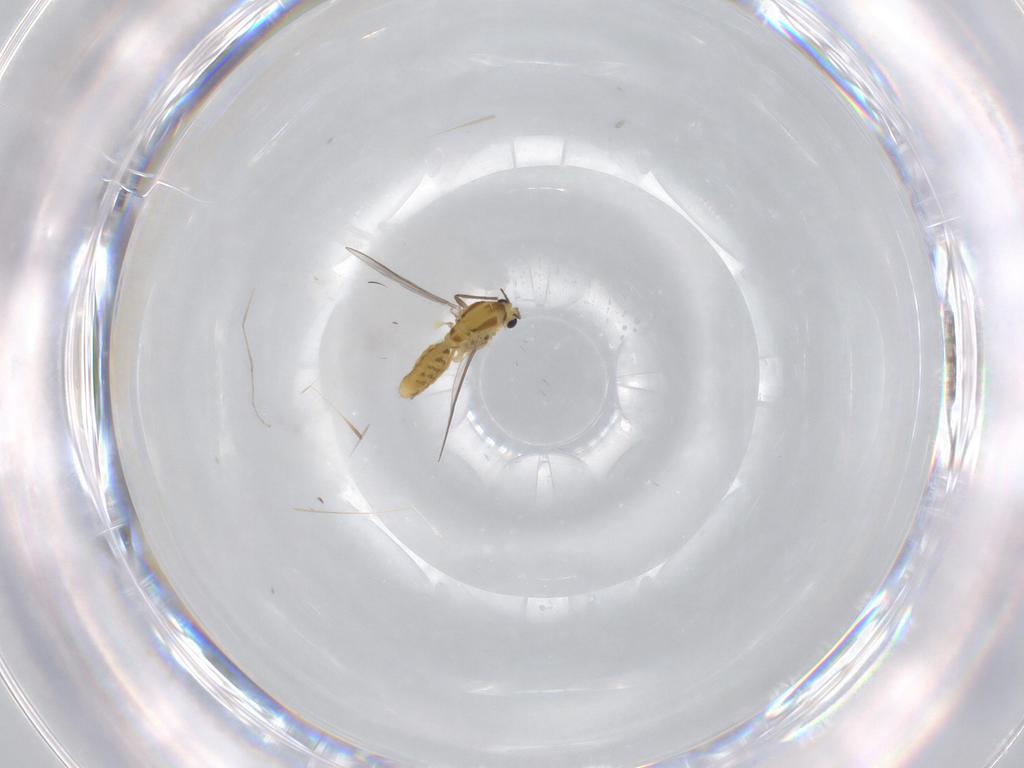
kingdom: Animalia
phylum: Arthropoda
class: Insecta
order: Diptera
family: Chironomidae
